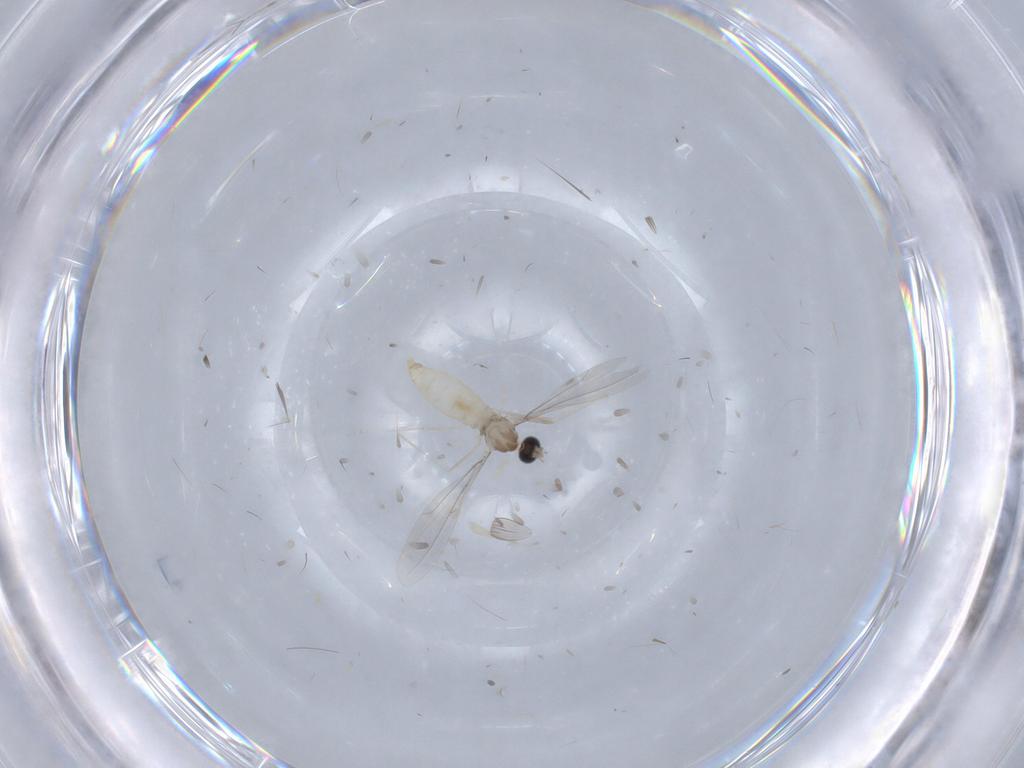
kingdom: Animalia
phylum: Arthropoda
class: Insecta
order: Diptera
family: Cecidomyiidae
